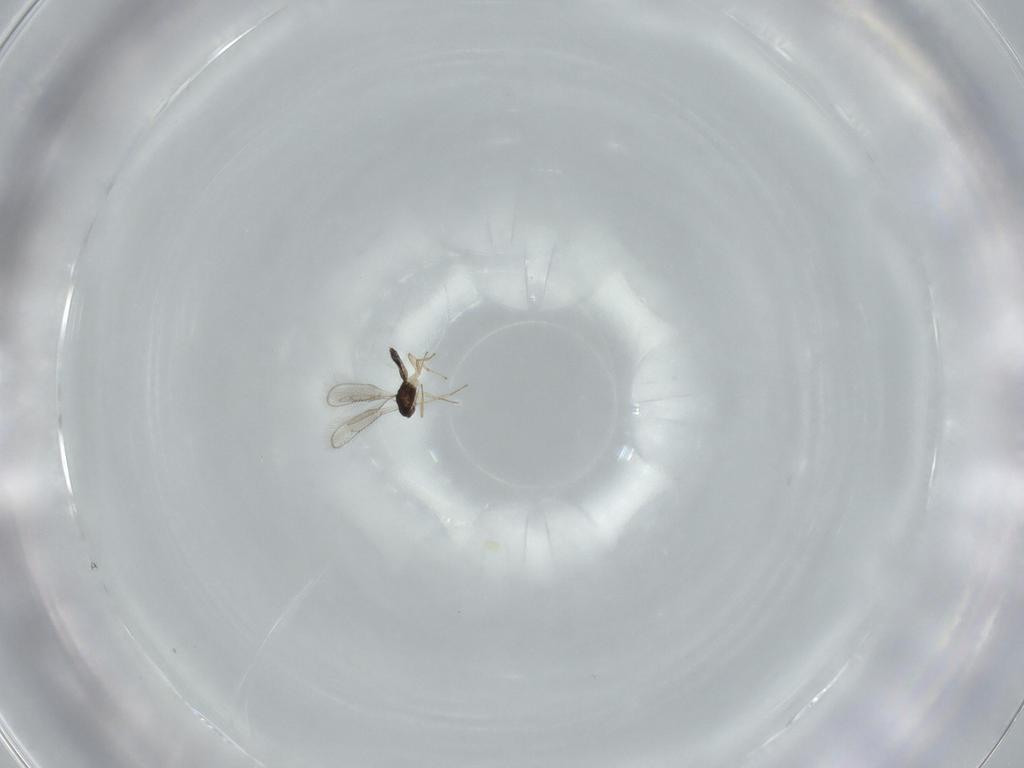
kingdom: Animalia
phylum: Arthropoda
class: Insecta
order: Hymenoptera
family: Pteromalidae
